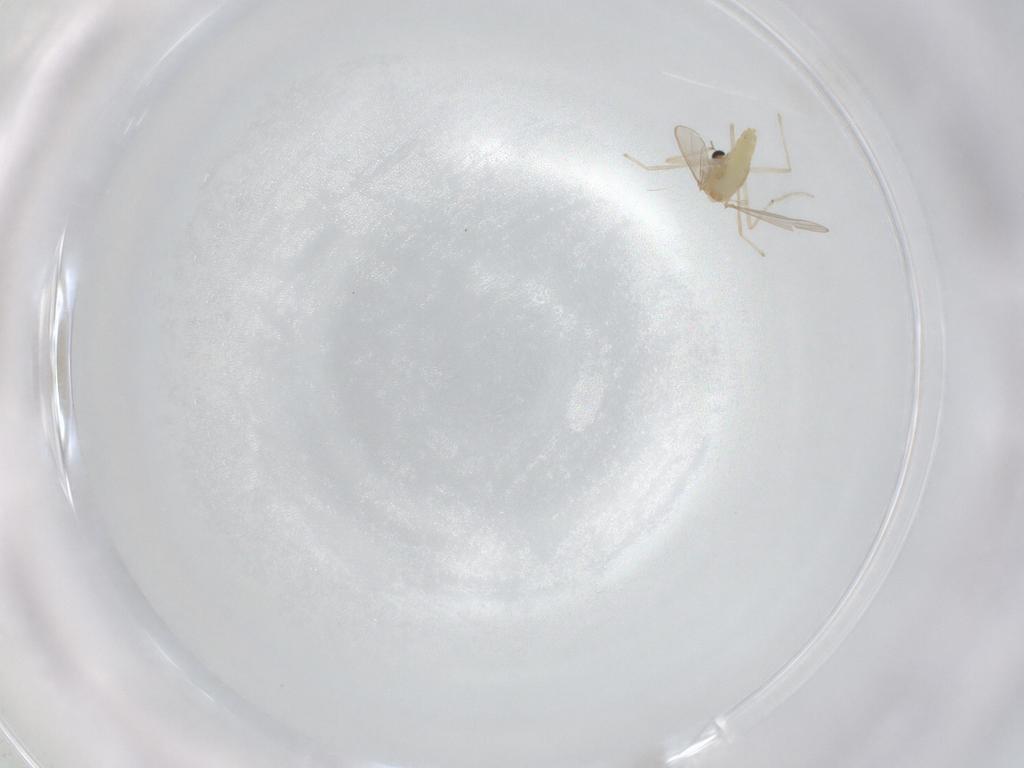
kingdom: Animalia
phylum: Arthropoda
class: Insecta
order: Diptera
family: Chironomidae
